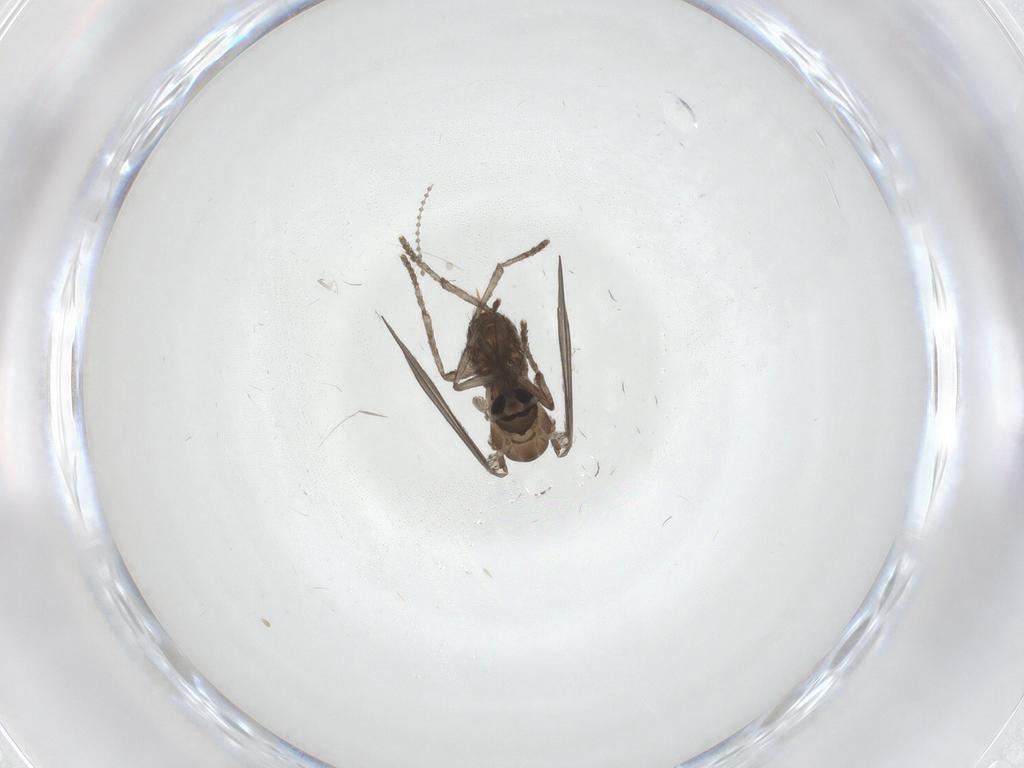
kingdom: Animalia
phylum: Arthropoda
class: Insecta
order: Diptera
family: Psychodidae
